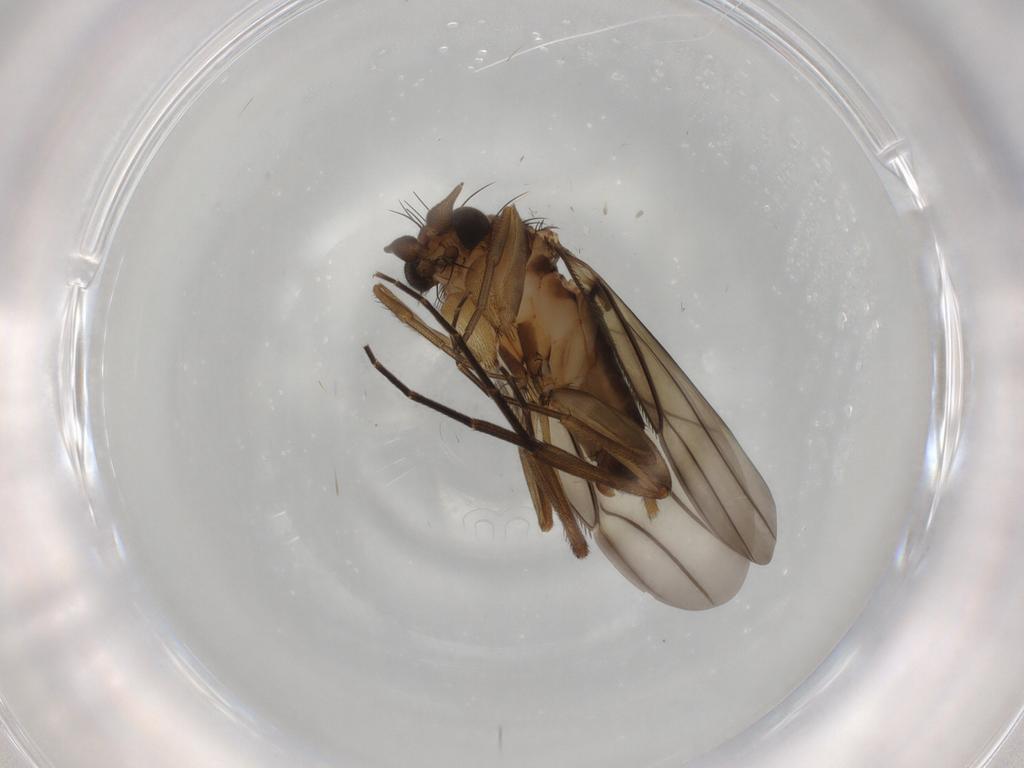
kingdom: Animalia
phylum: Arthropoda
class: Insecta
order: Diptera
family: Phoridae
